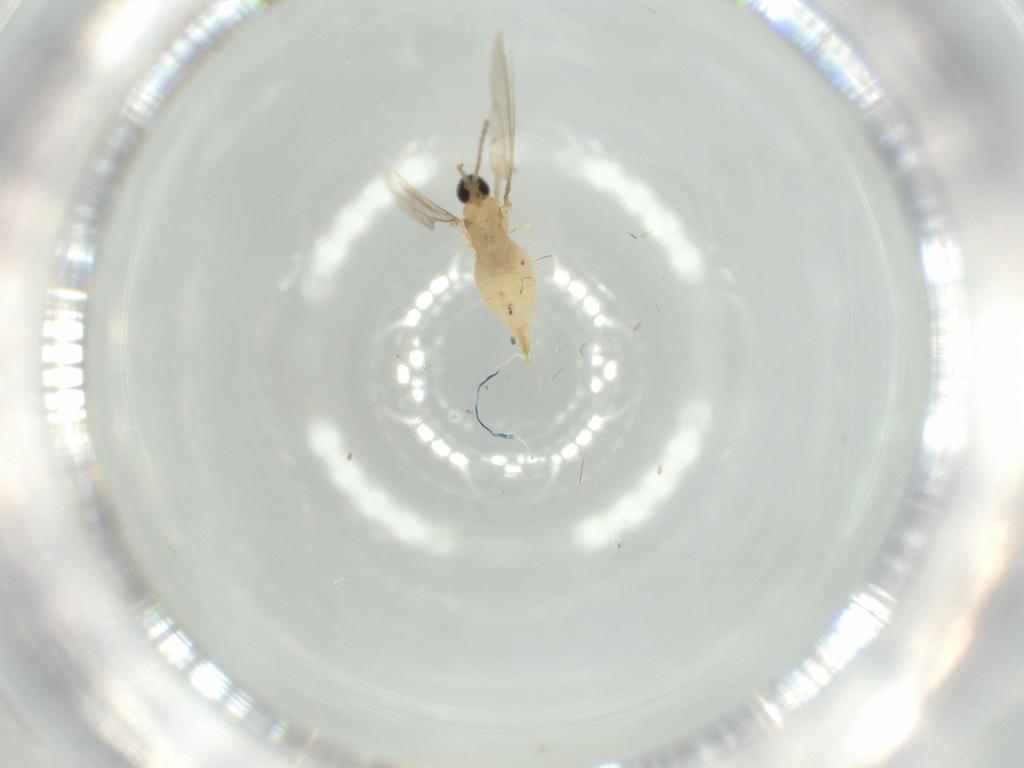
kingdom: Animalia
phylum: Arthropoda
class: Insecta
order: Diptera
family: Cecidomyiidae
